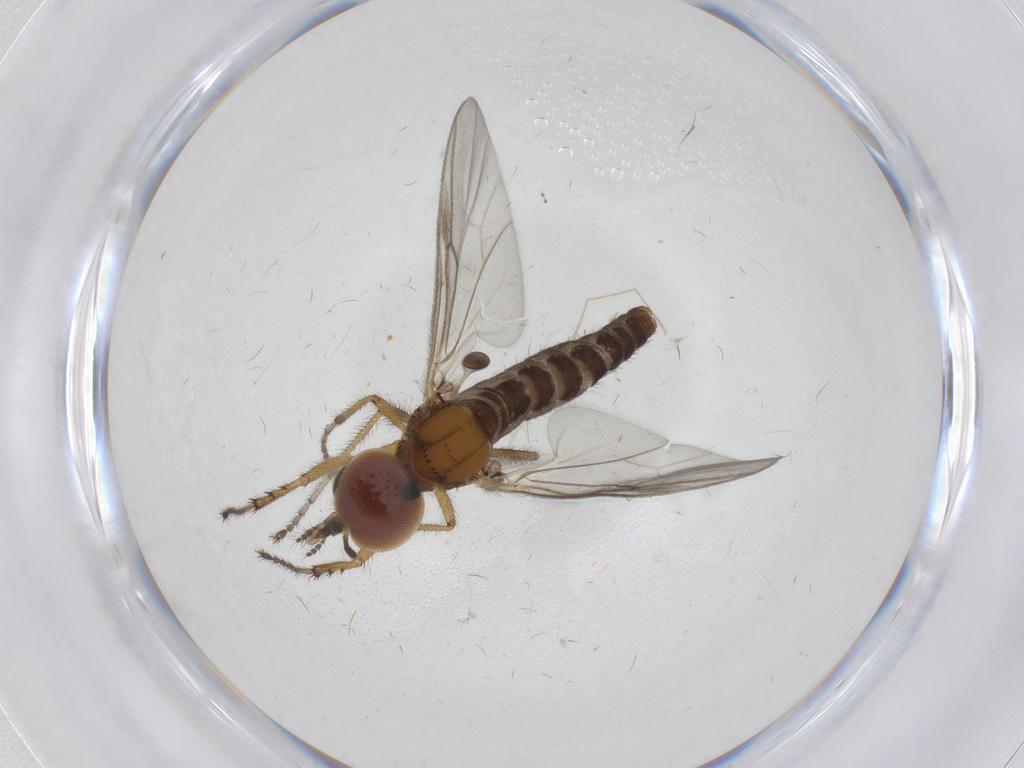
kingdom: Animalia
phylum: Arthropoda
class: Insecta
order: Diptera
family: Bibionidae
